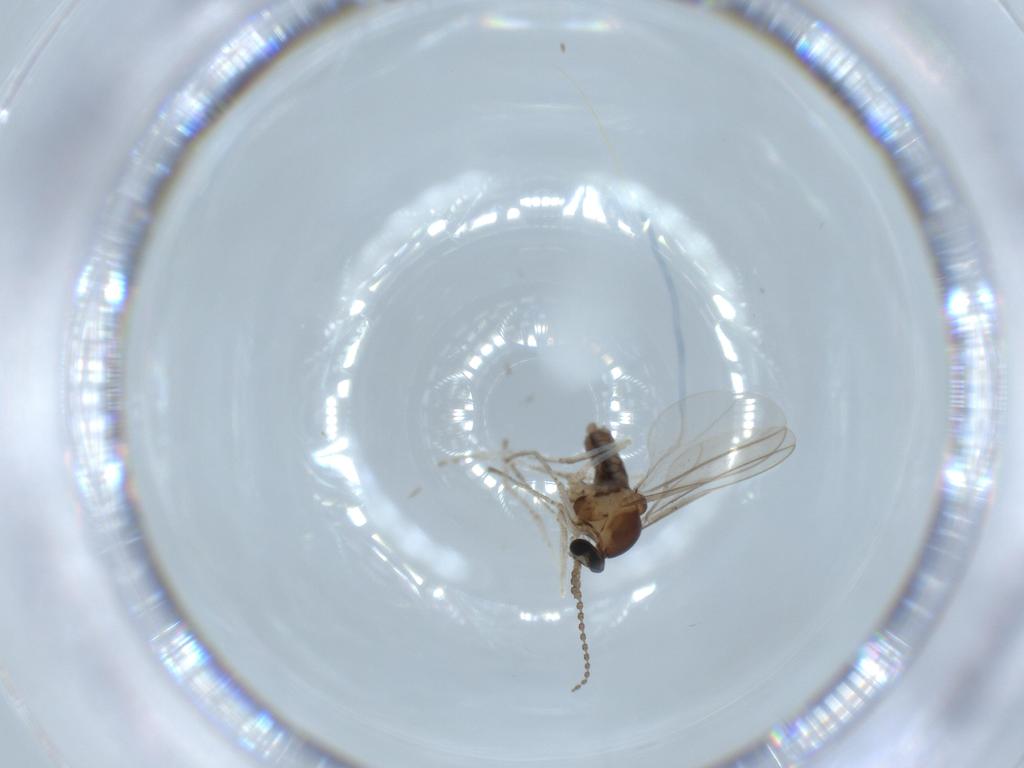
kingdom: Animalia
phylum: Arthropoda
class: Insecta
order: Diptera
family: Cecidomyiidae
